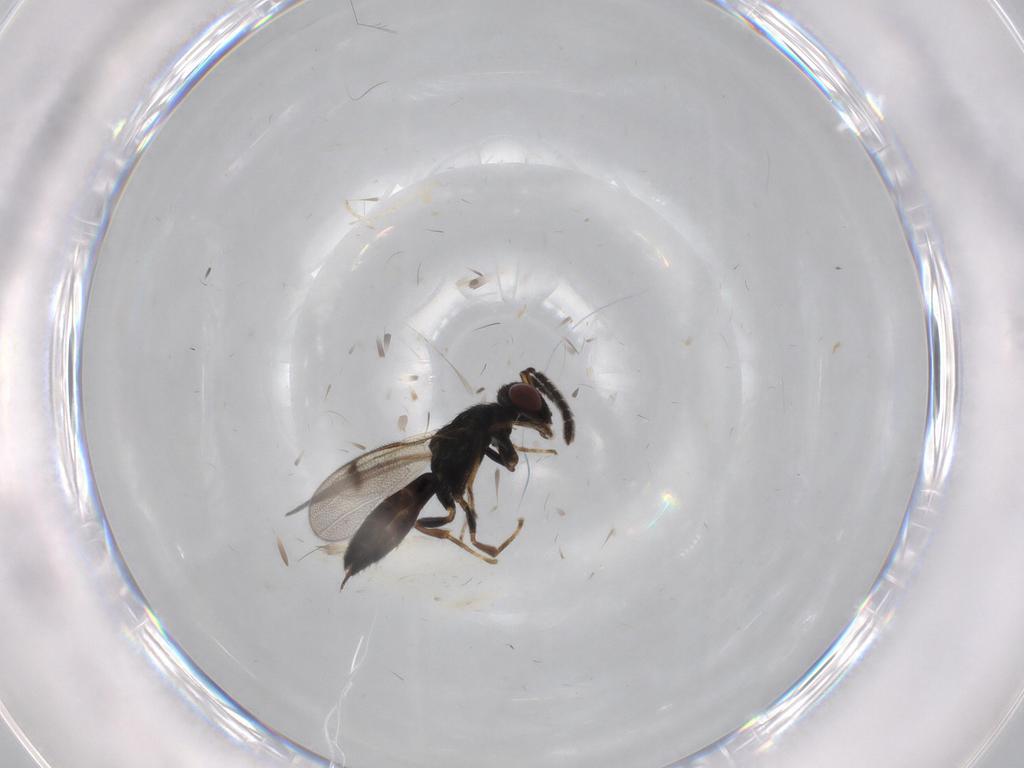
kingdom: Animalia
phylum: Arthropoda
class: Insecta
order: Hymenoptera
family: Pteromalidae
